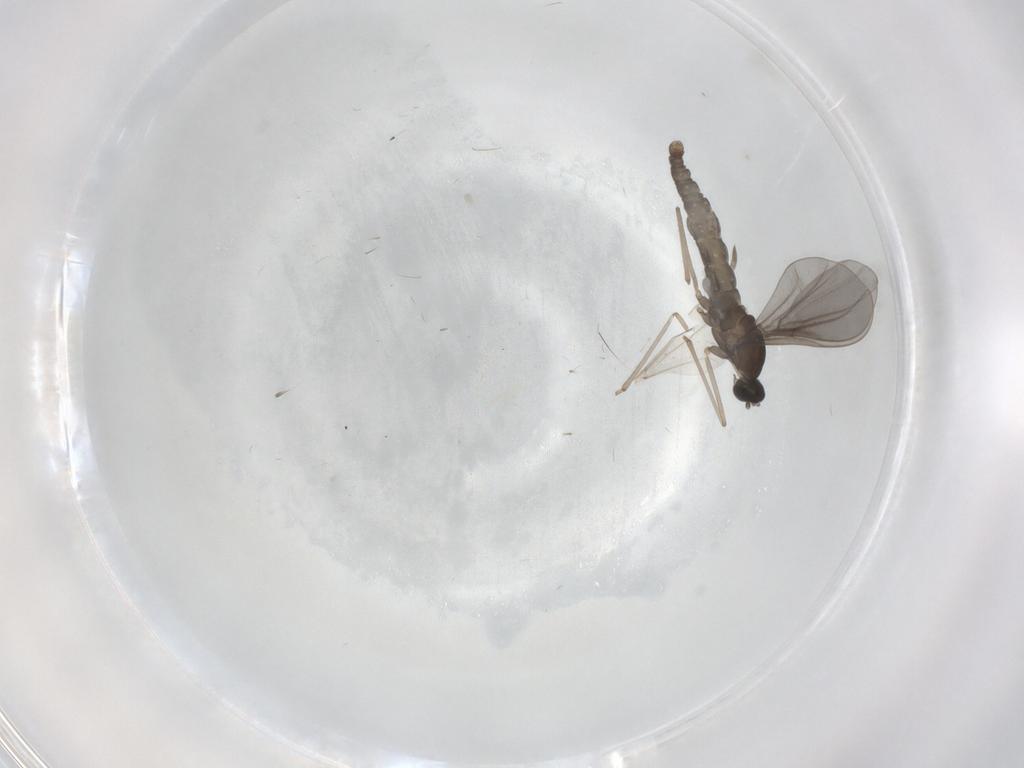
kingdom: Animalia
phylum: Arthropoda
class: Insecta
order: Diptera
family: Cecidomyiidae
